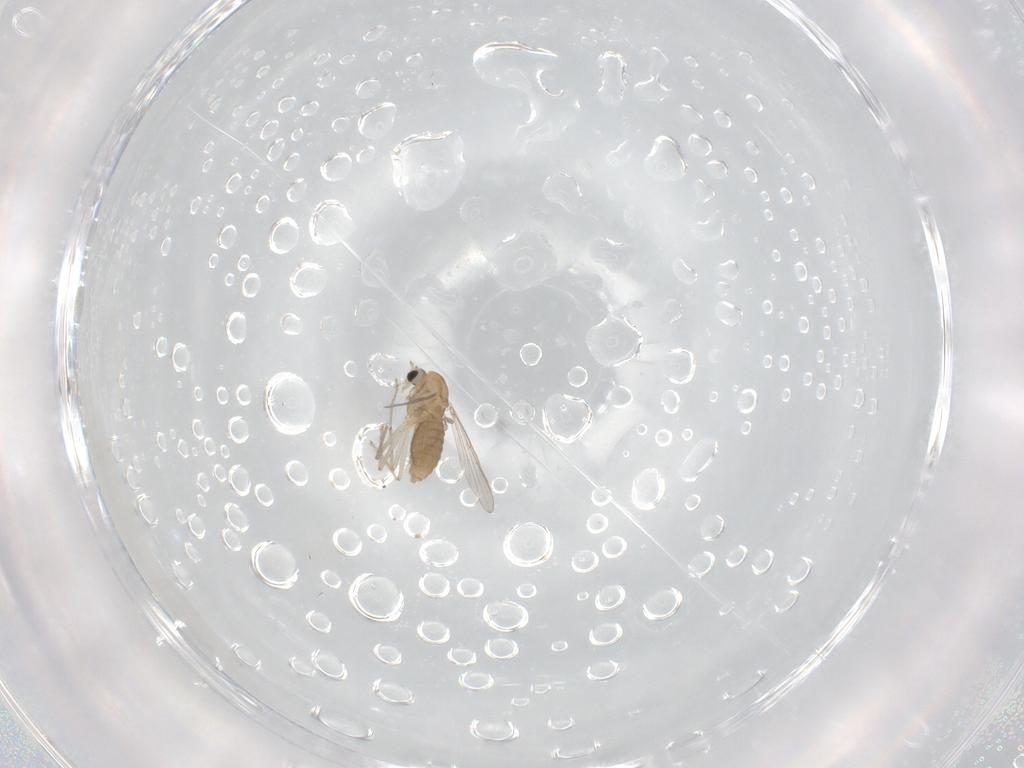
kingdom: Animalia
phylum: Arthropoda
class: Insecta
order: Diptera
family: Chironomidae
